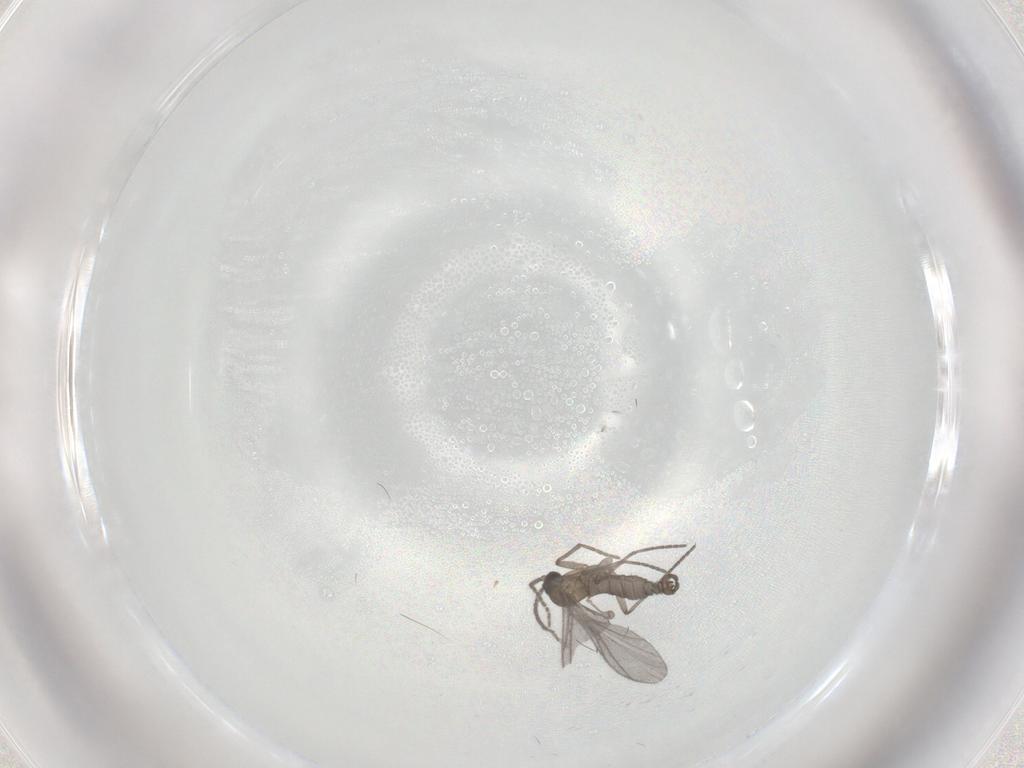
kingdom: Animalia
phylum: Arthropoda
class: Insecta
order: Diptera
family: Sciaridae
